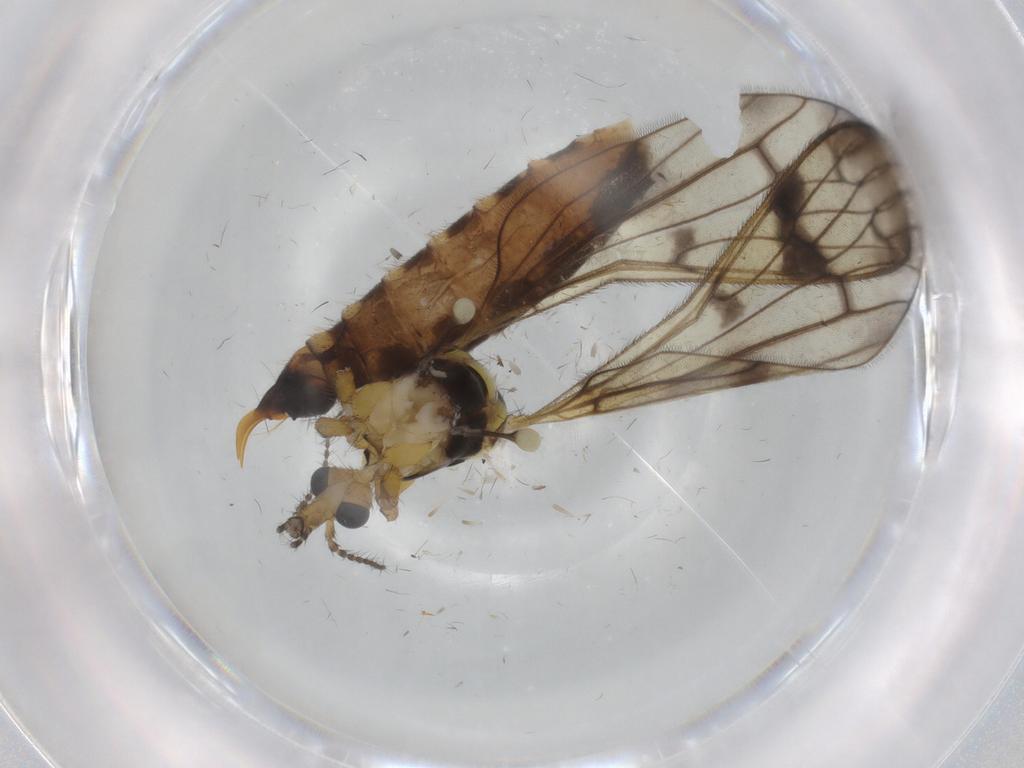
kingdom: Animalia
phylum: Arthropoda
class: Insecta
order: Diptera
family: Limoniidae
